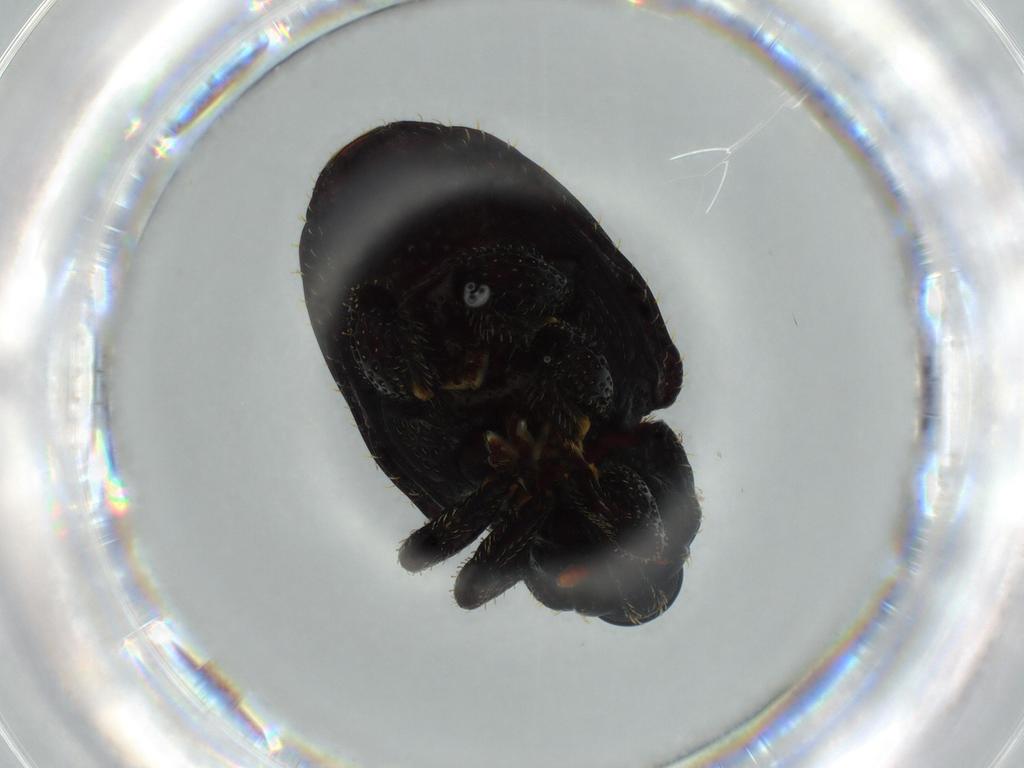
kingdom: Animalia
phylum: Arthropoda
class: Insecta
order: Coleoptera
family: Curculionidae
